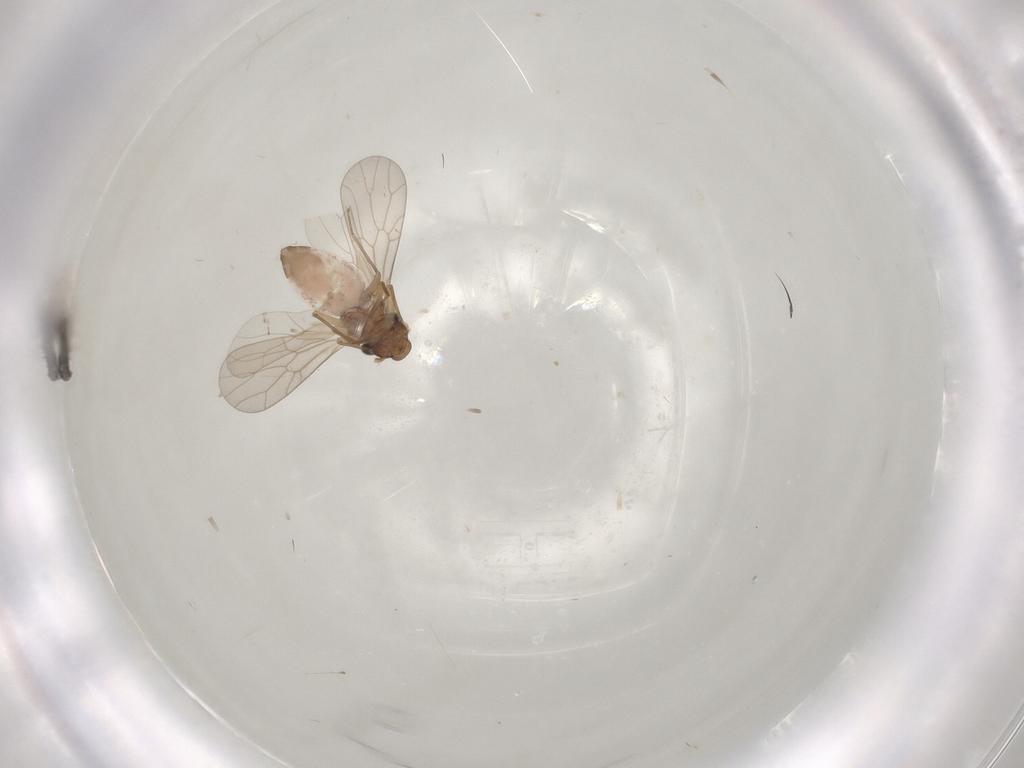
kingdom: Animalia
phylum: Arthropoda
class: Insecta
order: Psocodea
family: Lepidopsocidae
